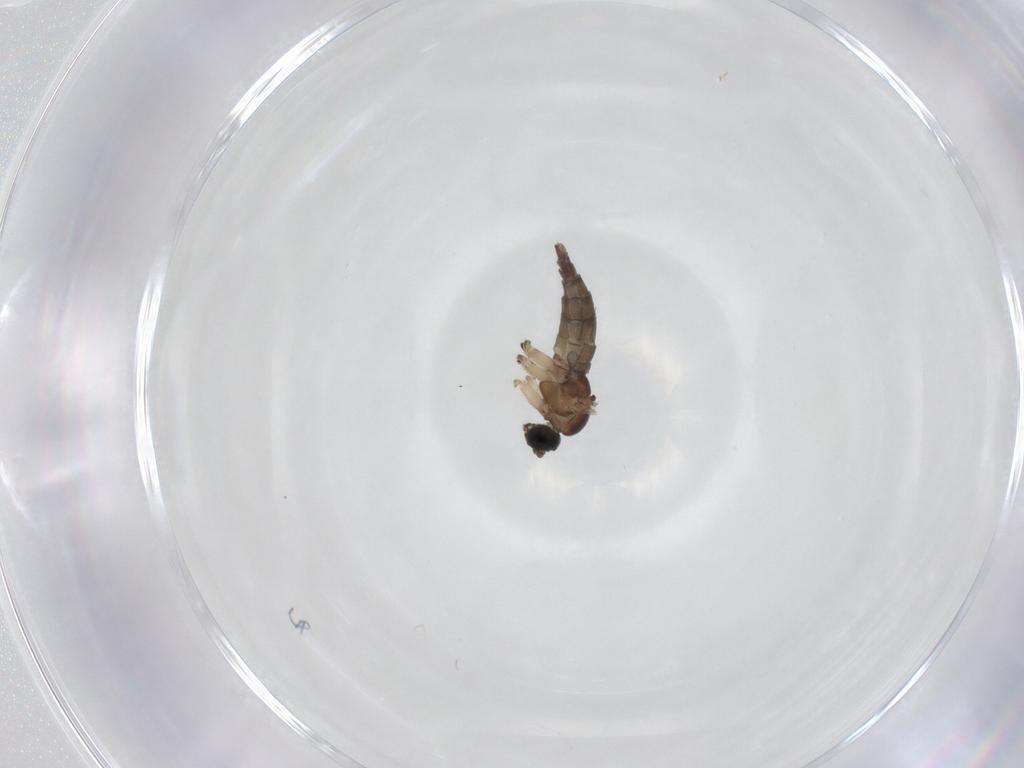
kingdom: Animalia
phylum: Arthropoda
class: Insecta
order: Diptera
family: Sciaridae
